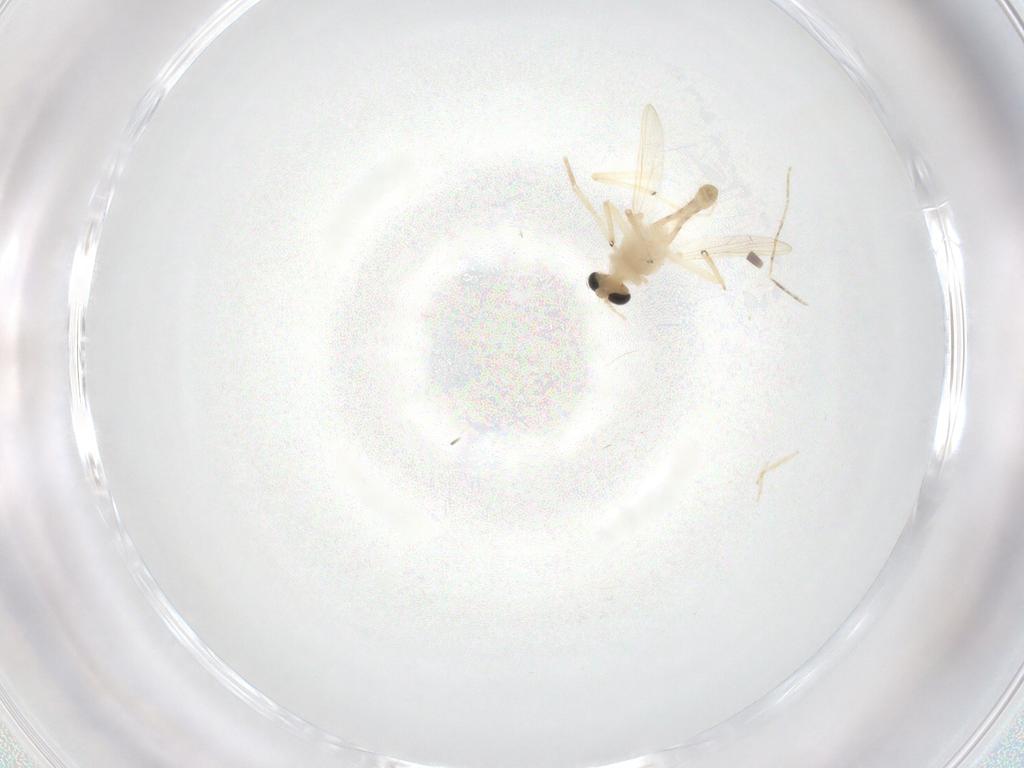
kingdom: Animalia
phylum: Arthropoda
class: Insecta
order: Diptera
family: Chironomidae
